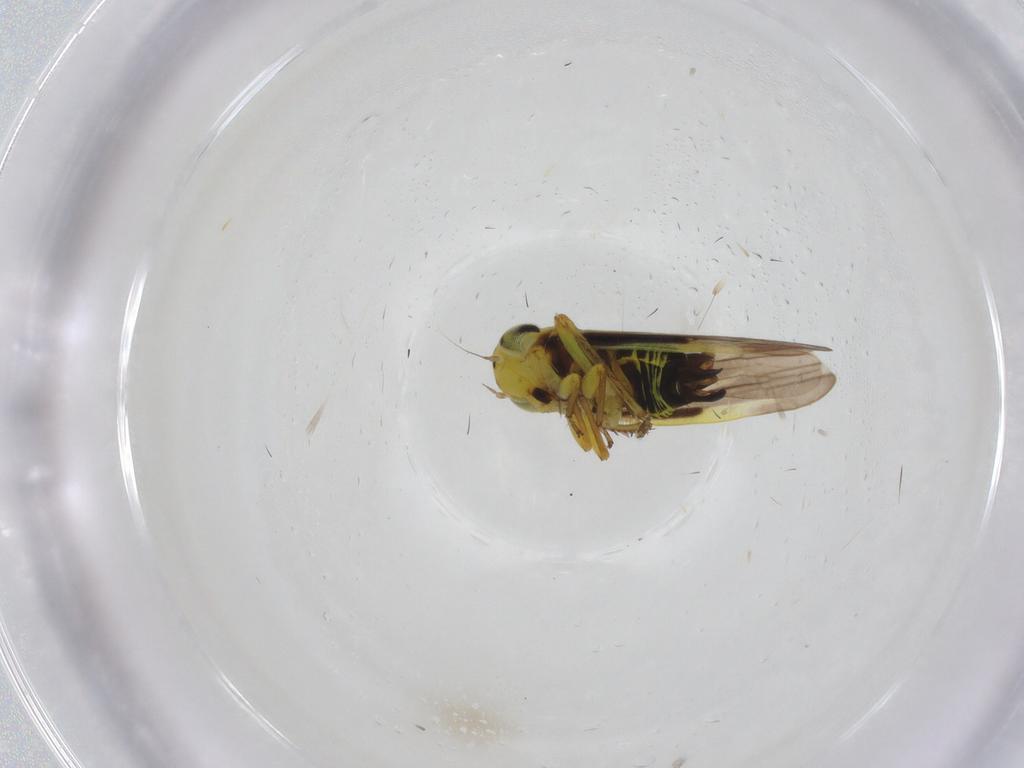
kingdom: Animalia
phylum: Arthropoda
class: Insecta
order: Hemiptera
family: Cicadellidae
